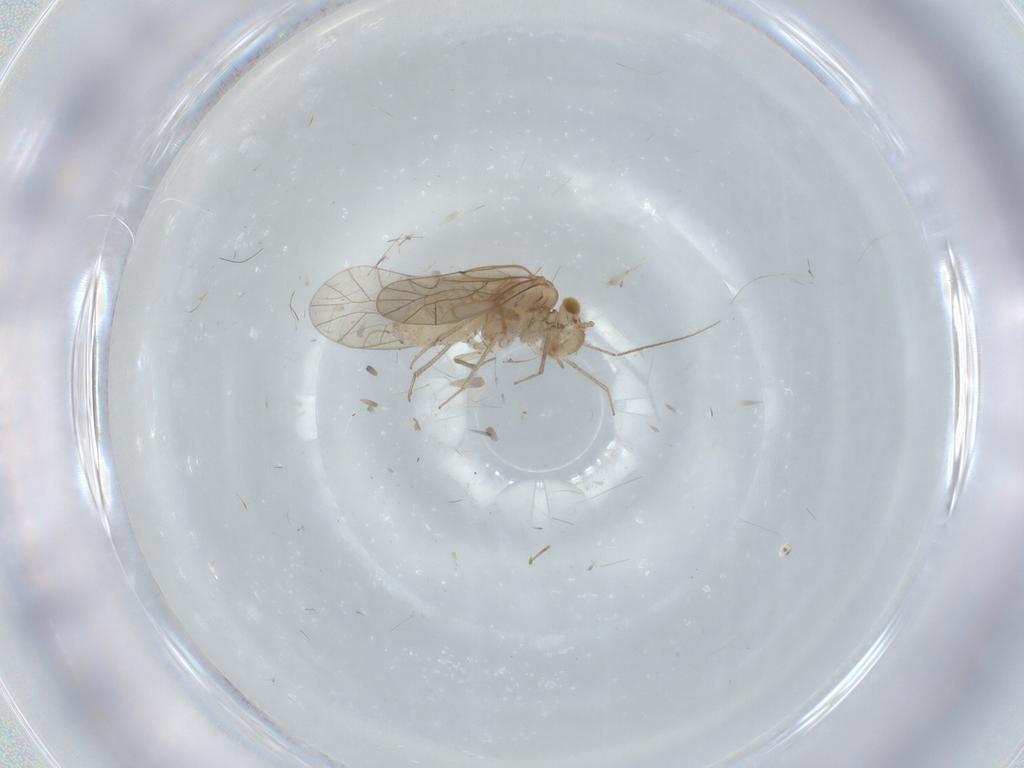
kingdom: Animalia
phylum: Arthropoda
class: Insecta
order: Psocodea
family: Lachesillidae
